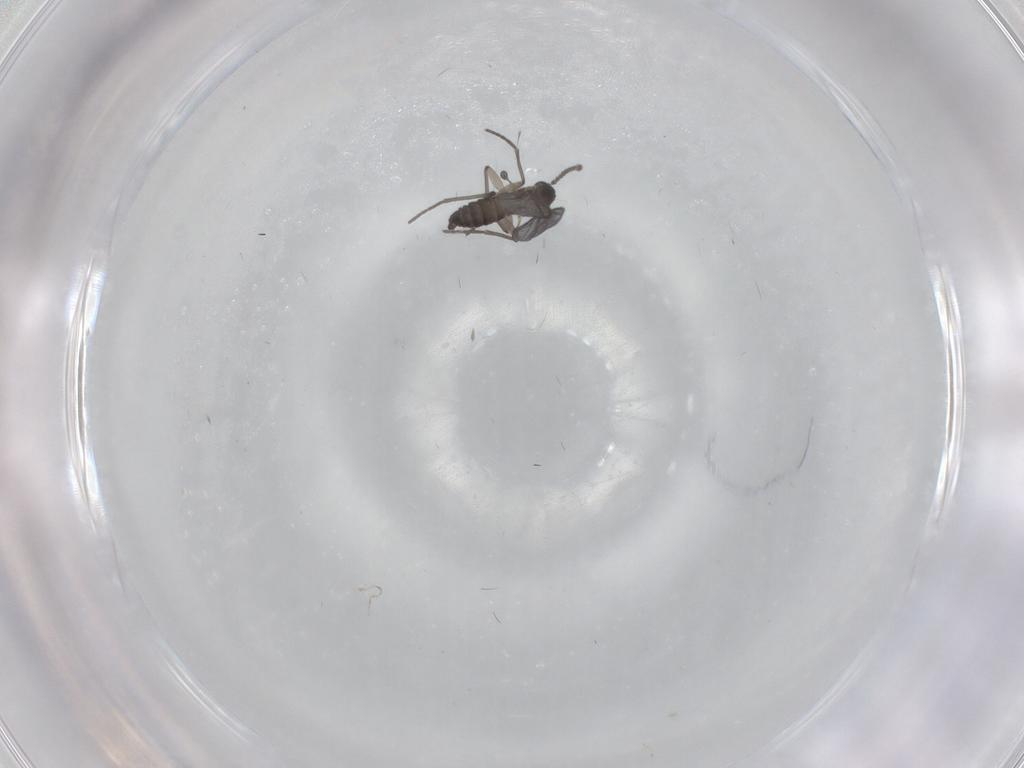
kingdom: Animalia
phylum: Arthropoda
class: Insecta
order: Diptera
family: Sciaridae
